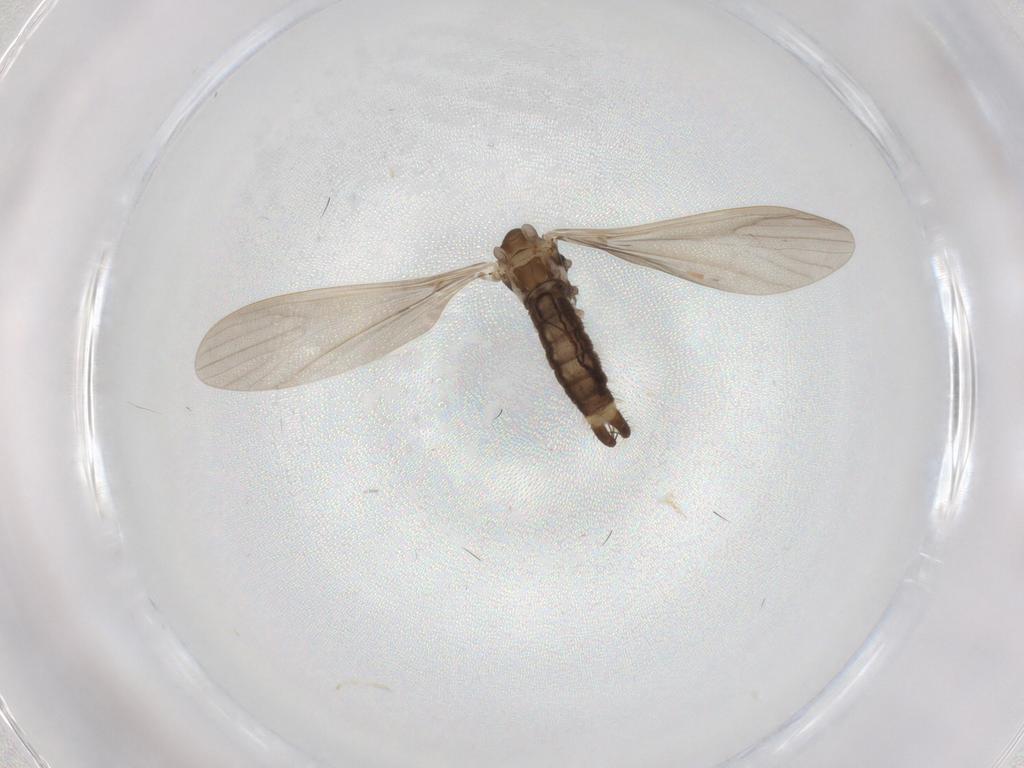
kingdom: Animalia
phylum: Arthropoda
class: Insecta
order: Diptera
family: Limoniidae
